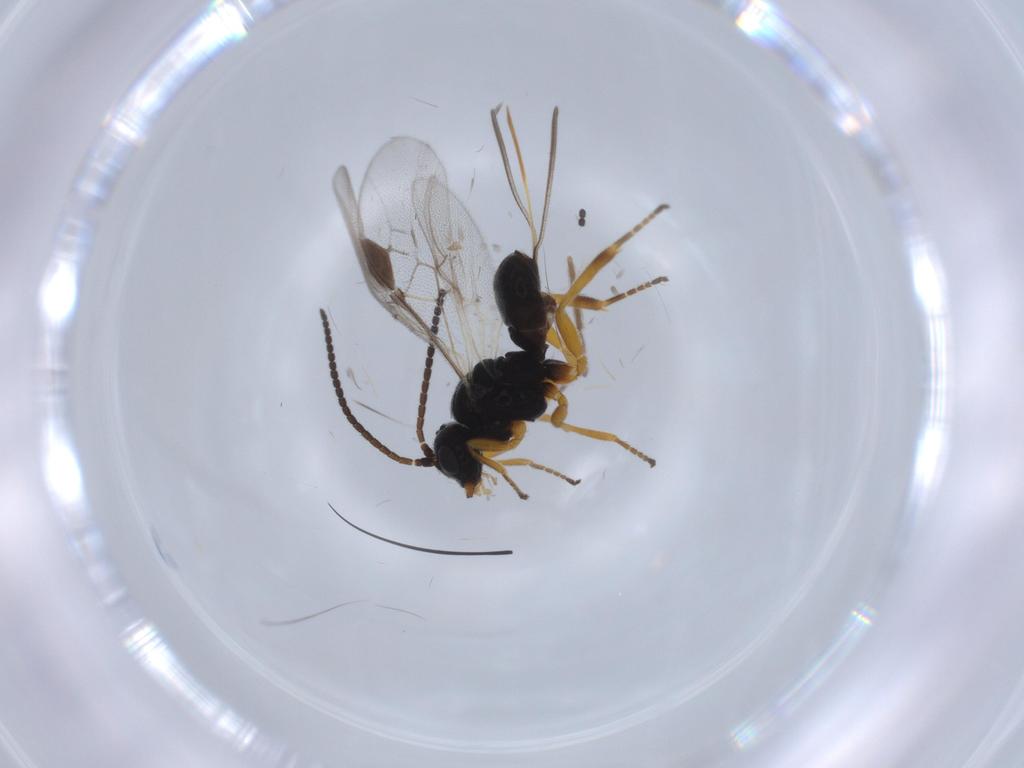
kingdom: Animalia
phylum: Arthropoda
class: Insecta
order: Hymenoptera
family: Braconidae
